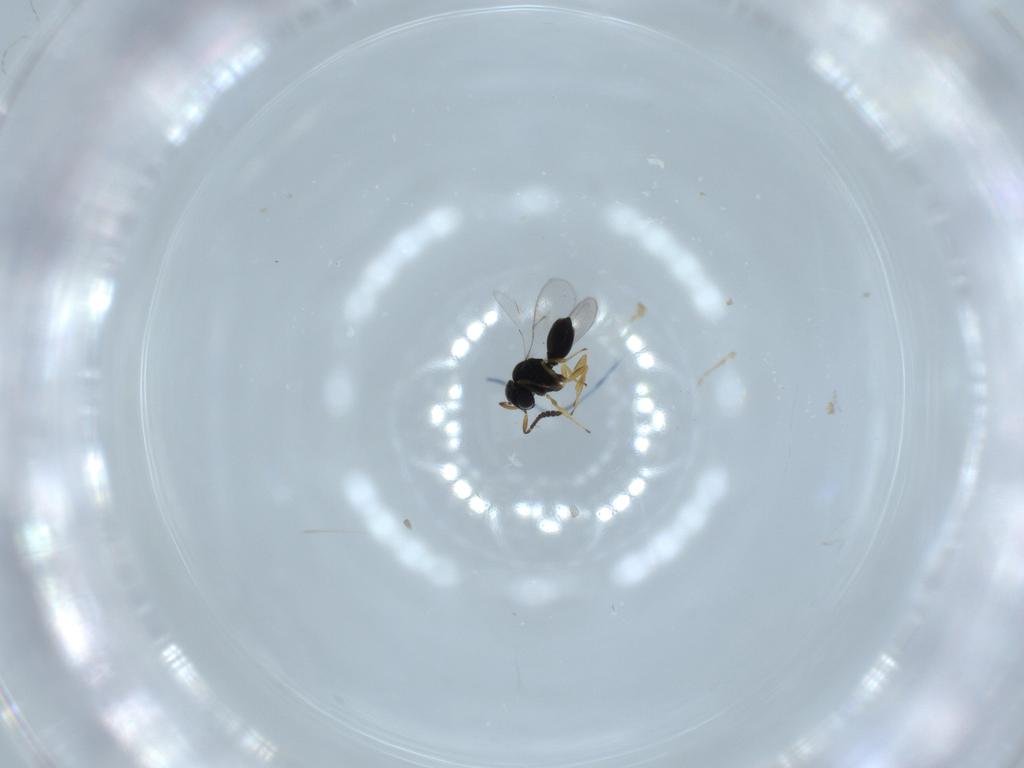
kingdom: Animalia
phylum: Arthropoda
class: Insecta
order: Hymenoptera
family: Scelionidae
